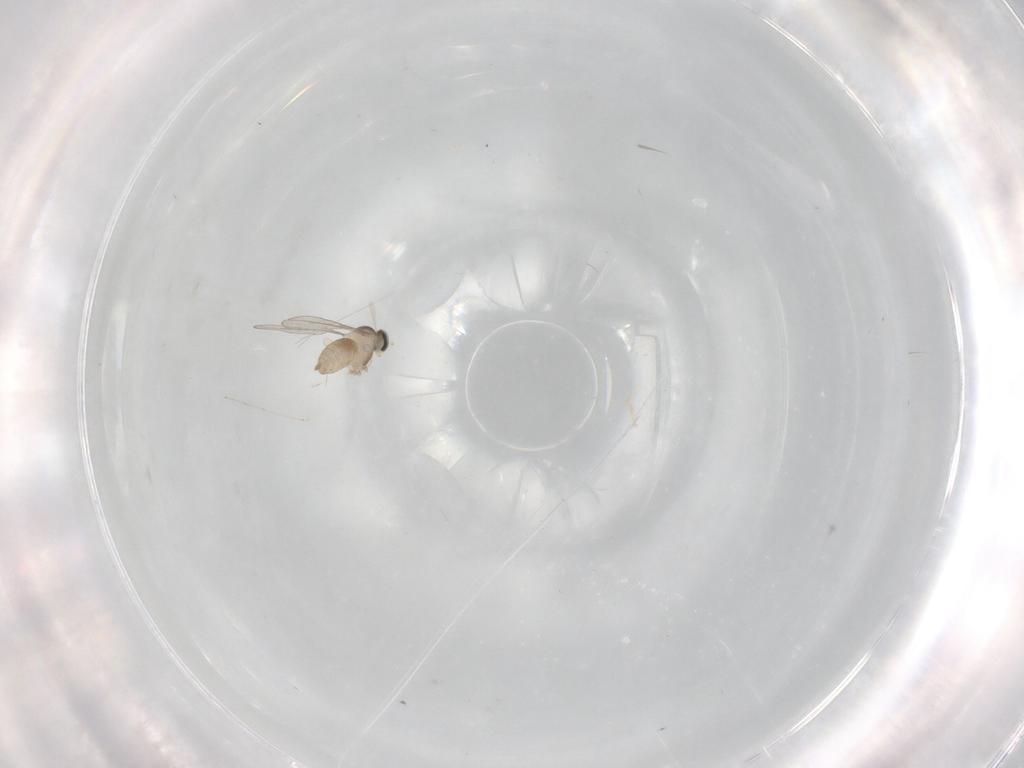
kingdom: Animalia
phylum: Arthropoda
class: Insecta
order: Diptera
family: Cecidomyiidae
